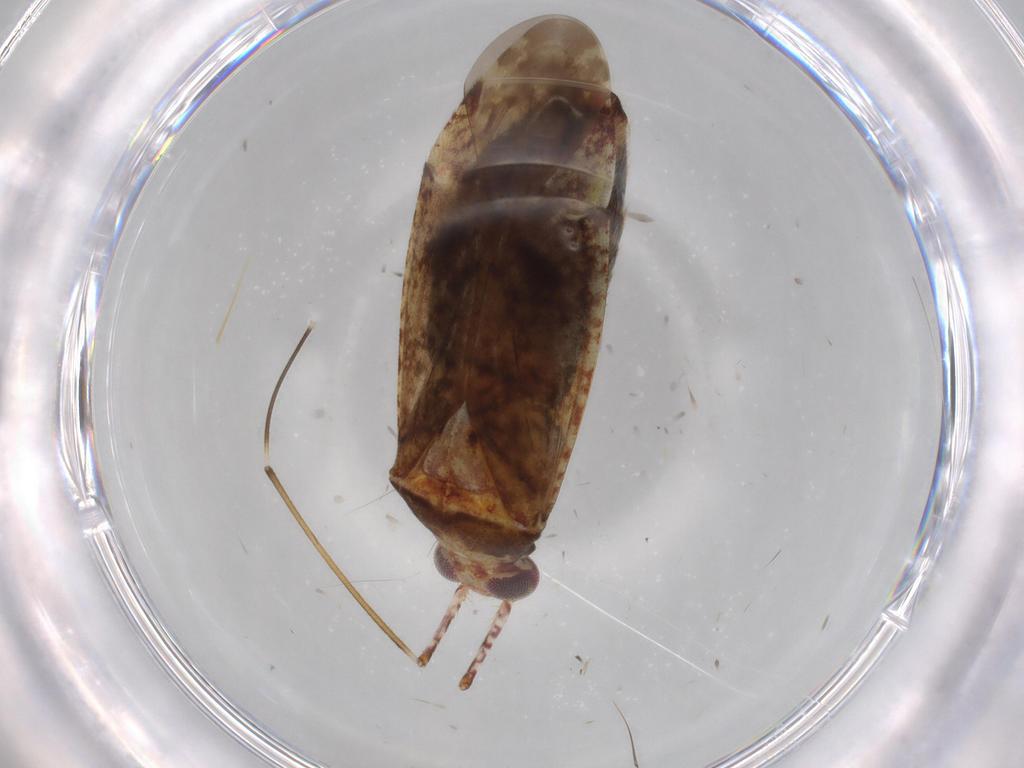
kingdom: Animalia
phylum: Arthropoda
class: Insecta
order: Hemiptera
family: Miridae
